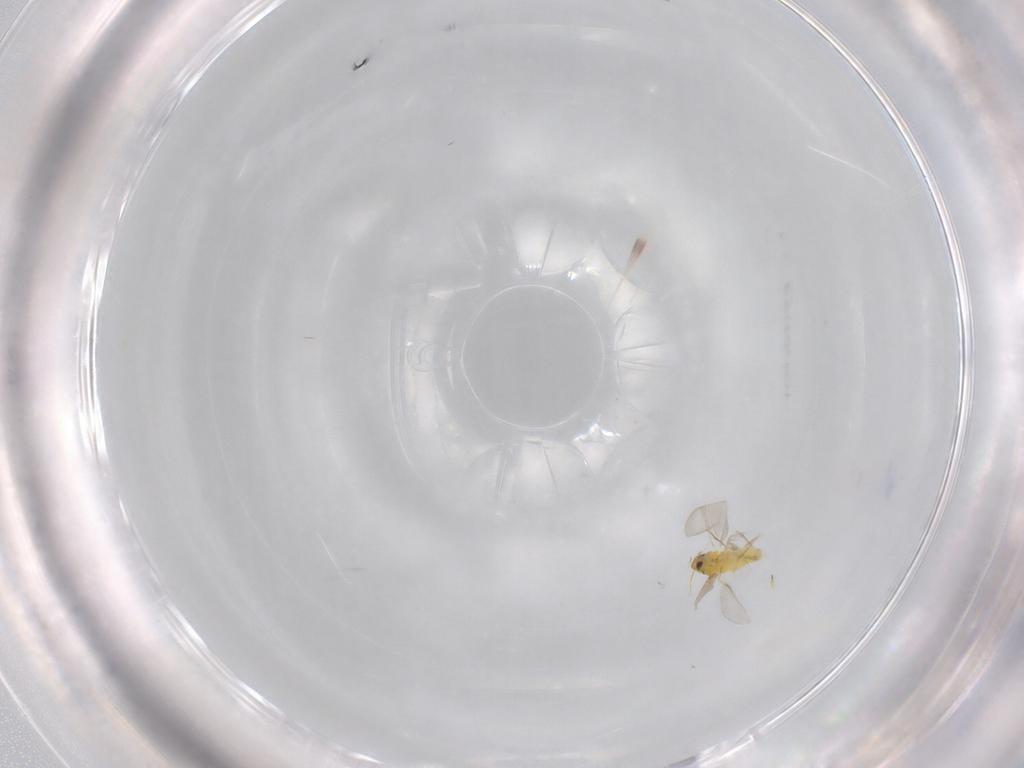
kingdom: Animalia
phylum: Arthropoda
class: Insecta
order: Hemiptera
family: Aleyrodidae
